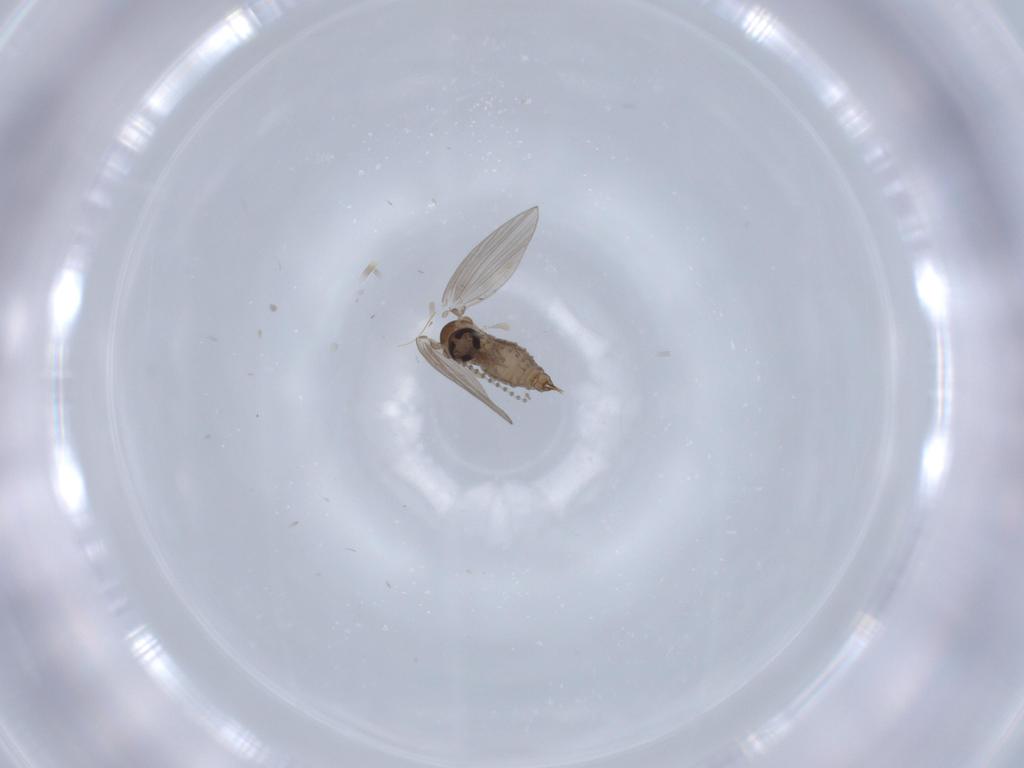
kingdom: Animalia
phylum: Arthropoda
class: Insecta
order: Diptera
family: Psychodidae
